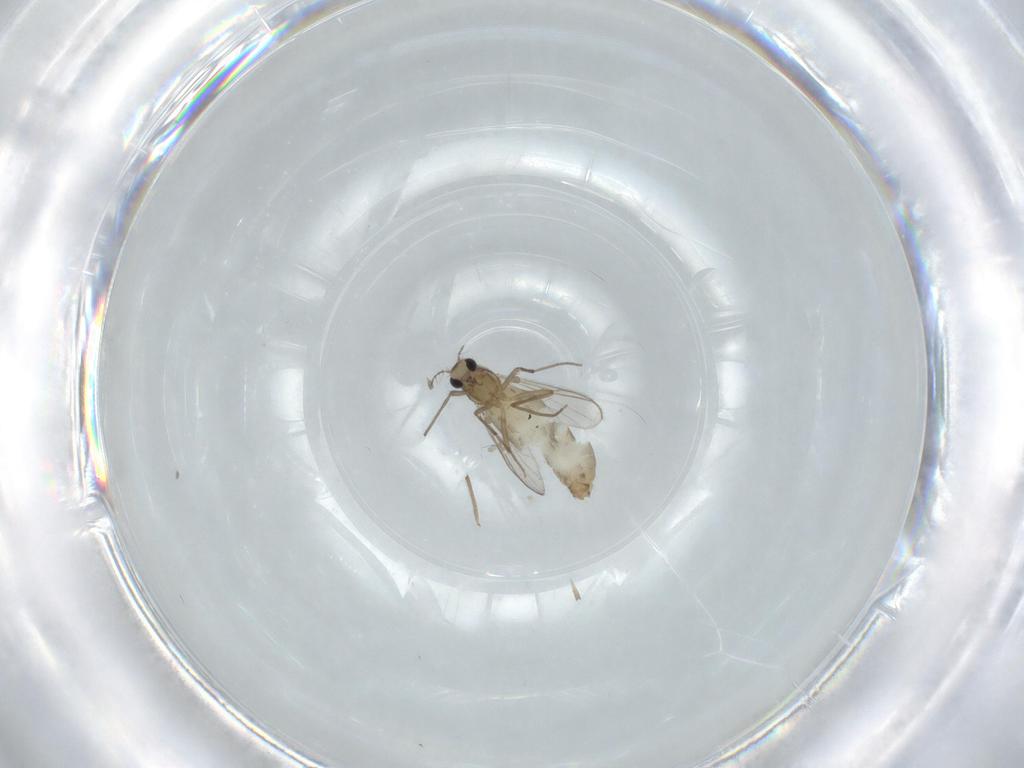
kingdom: Animalia
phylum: Arthropoda
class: Insecta
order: Diptera
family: Chironomidae
